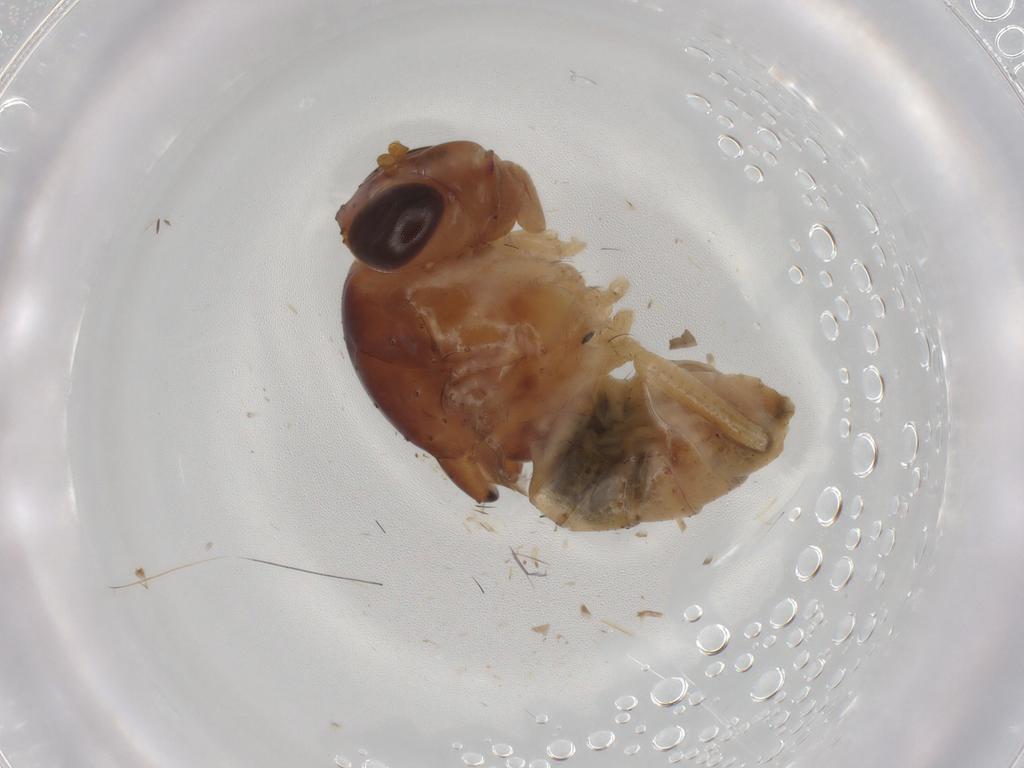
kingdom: Animalia
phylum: Arthropoda
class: Insecta
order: Diptera
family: Ephydridae
